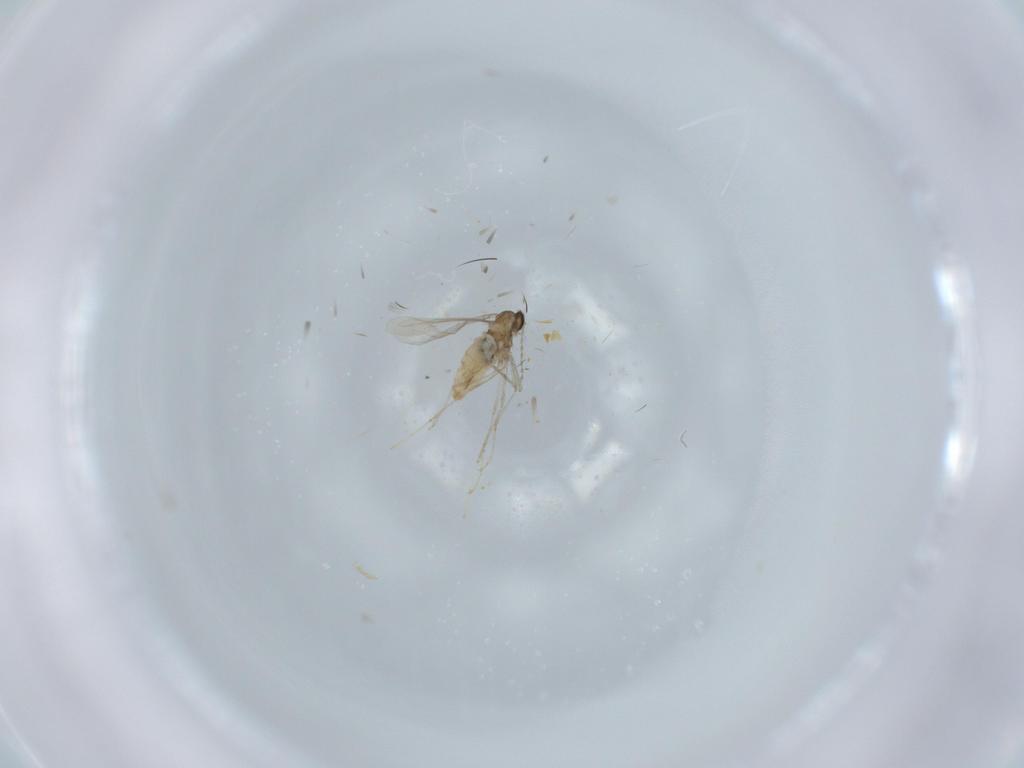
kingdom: Animalia
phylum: Arthropoda
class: Insecta
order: Diptera
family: Cecidomyiidae
